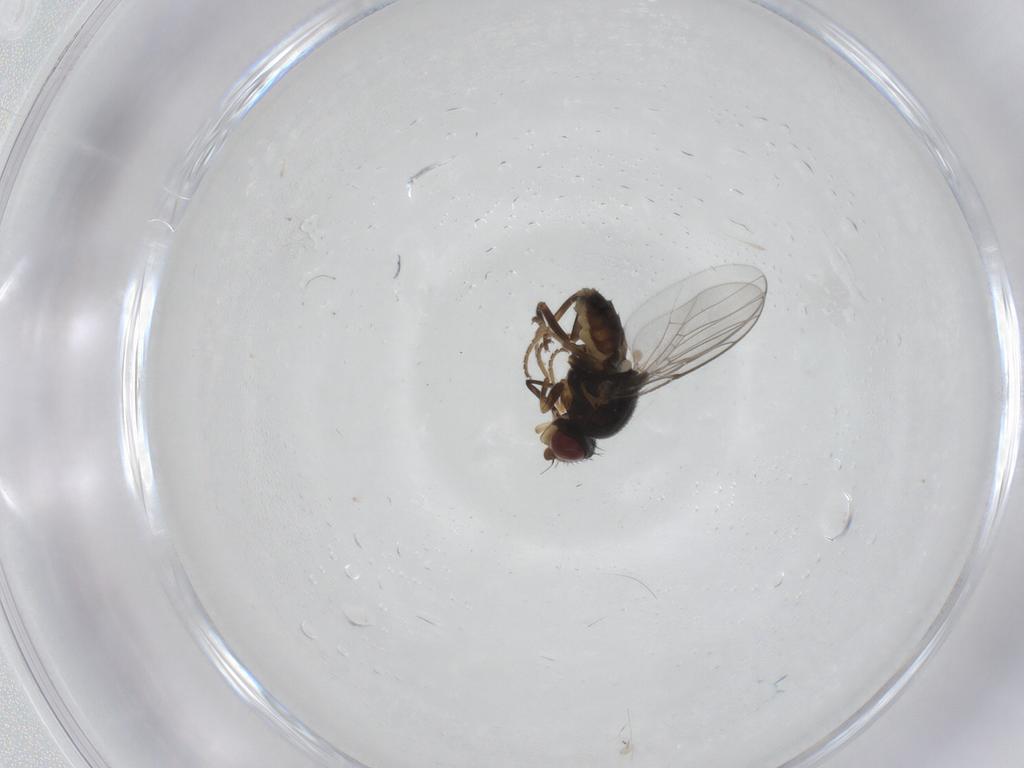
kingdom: Animalia
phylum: Arthropoda
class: Insecta
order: Diptera
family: Chloropidae
